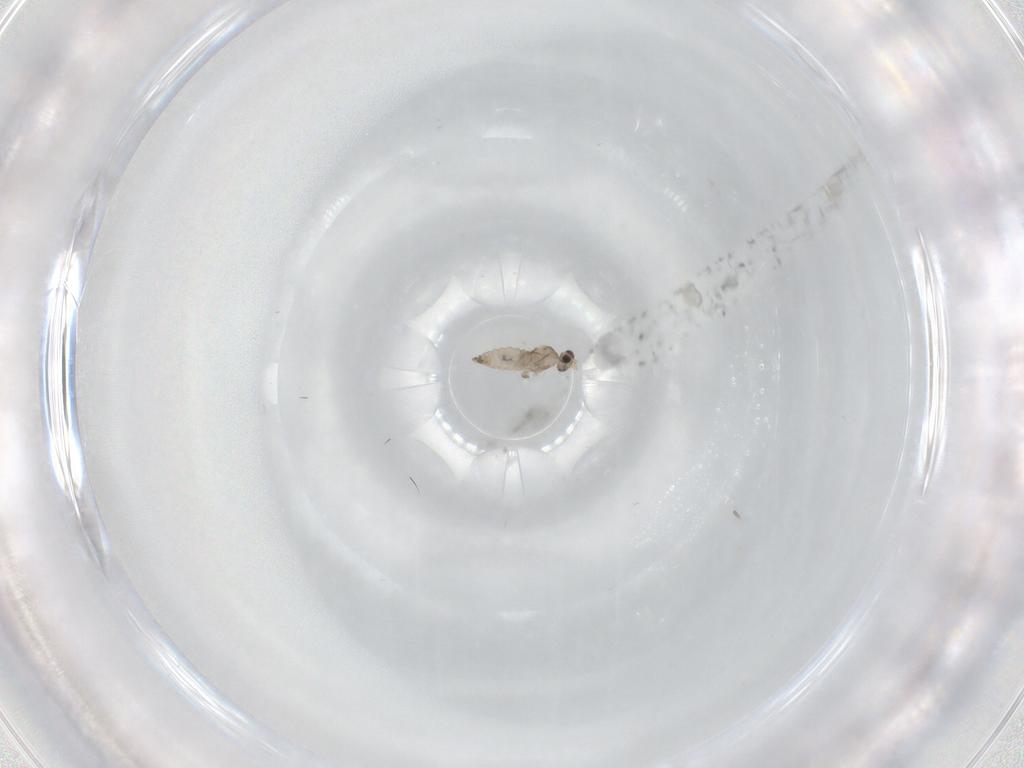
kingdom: Animalia
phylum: Arthropoda
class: Insecta
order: Diptera
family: Cecidomyiidae
